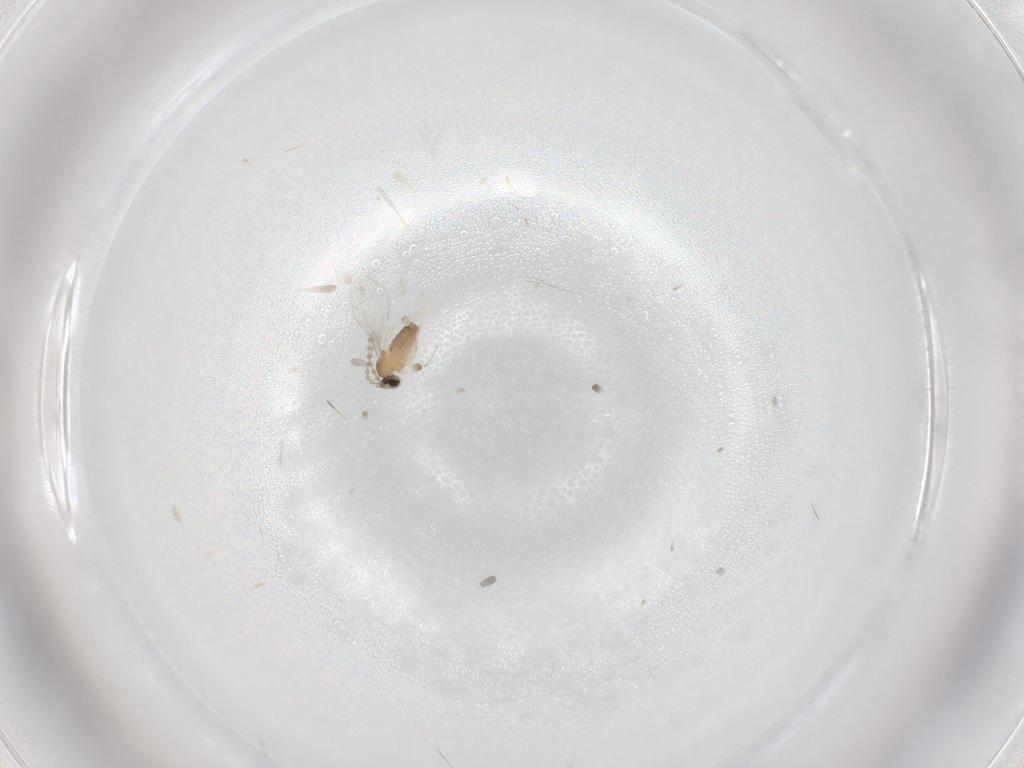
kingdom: Animalia
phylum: Arthropoda
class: Insecta
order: Diptera
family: Cecidomyiidae
